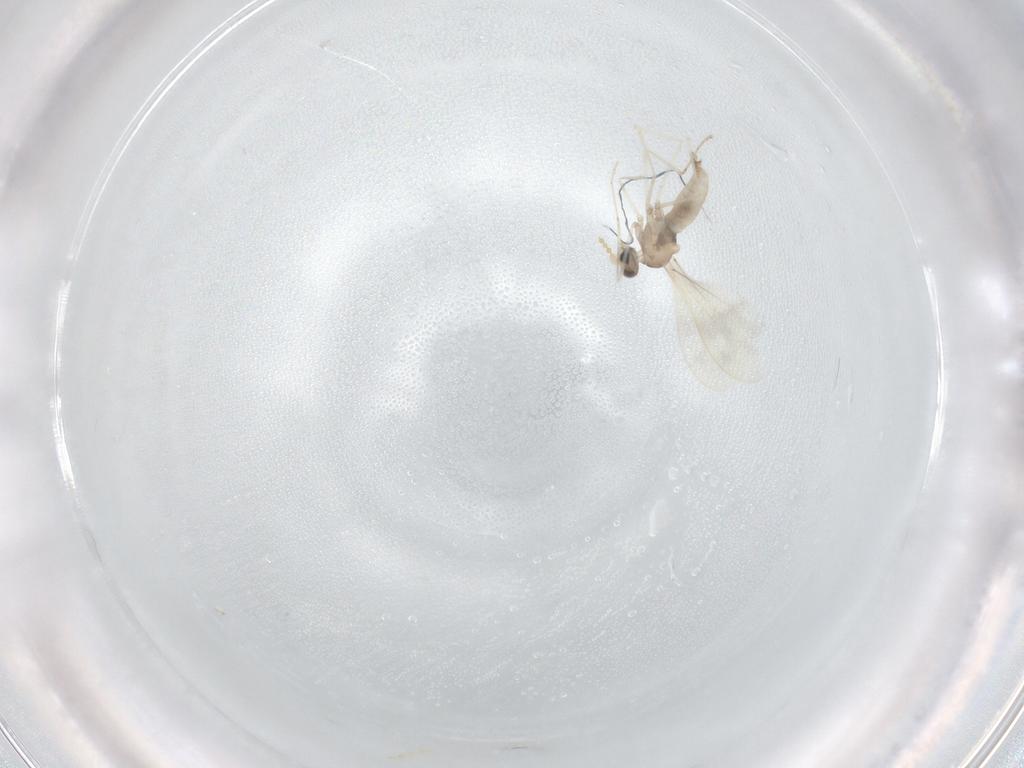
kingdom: Animalia
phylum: Arthropoda
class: Insecta
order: Diptera
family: Cecidomyiidae
